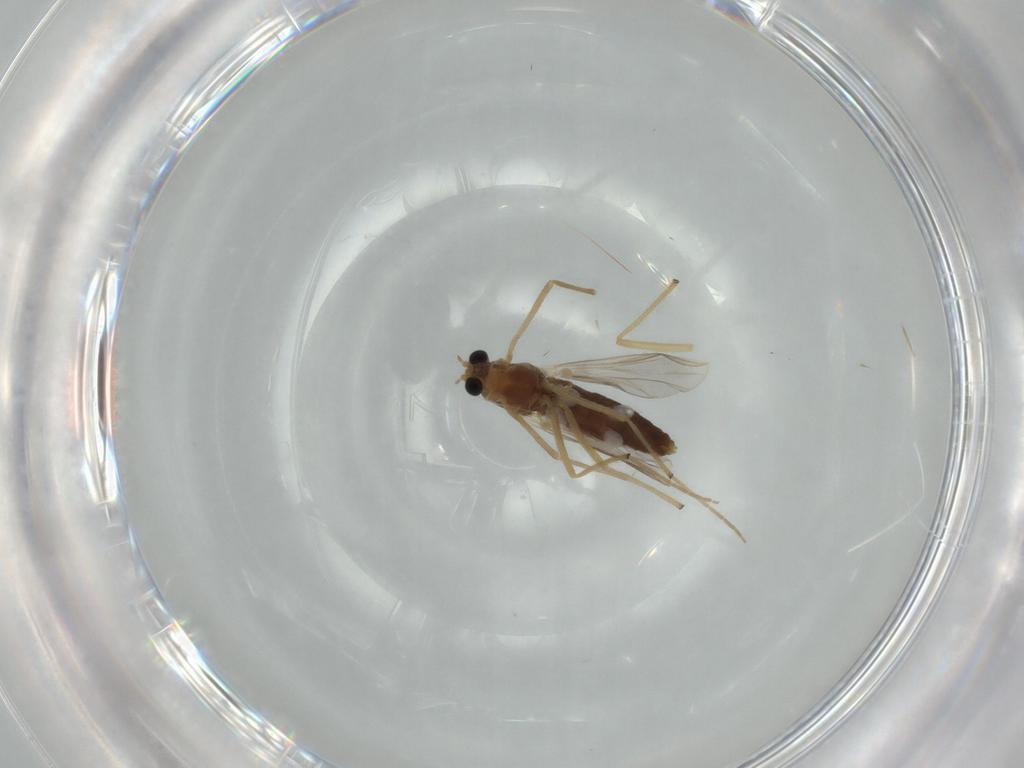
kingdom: Animalia
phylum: Arthropoda
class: Insecta
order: Diptera
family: Chironomidae
